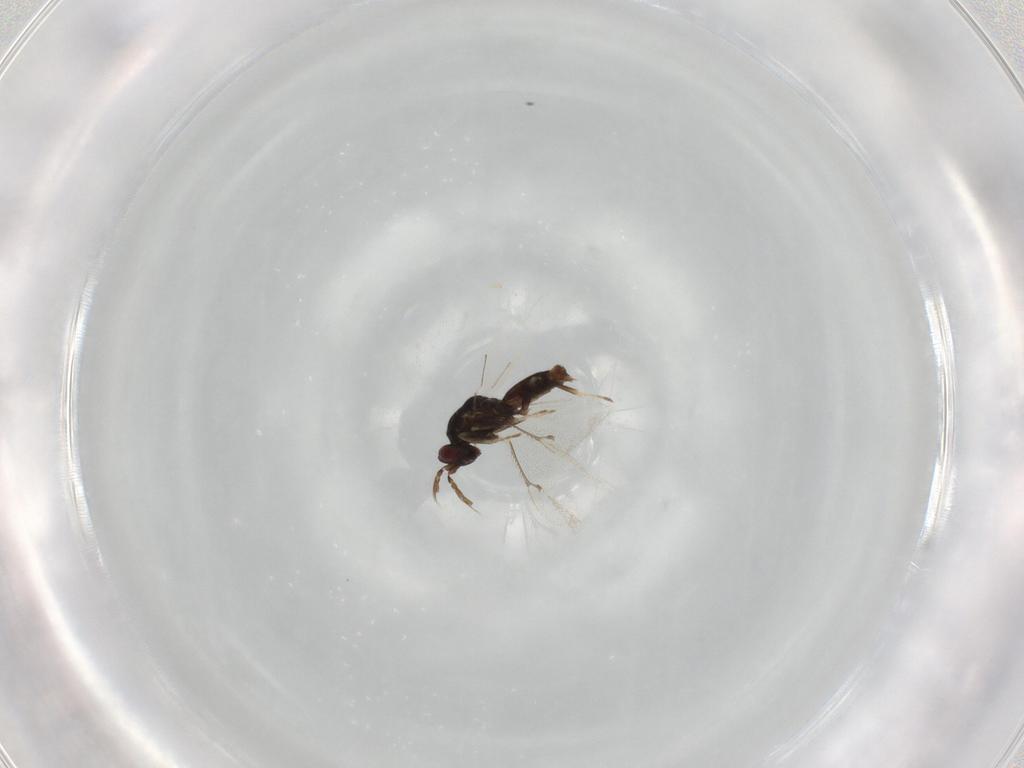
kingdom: Animalia
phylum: Arthropoda
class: Insecta
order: Hymenoptera
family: Eulophidae
